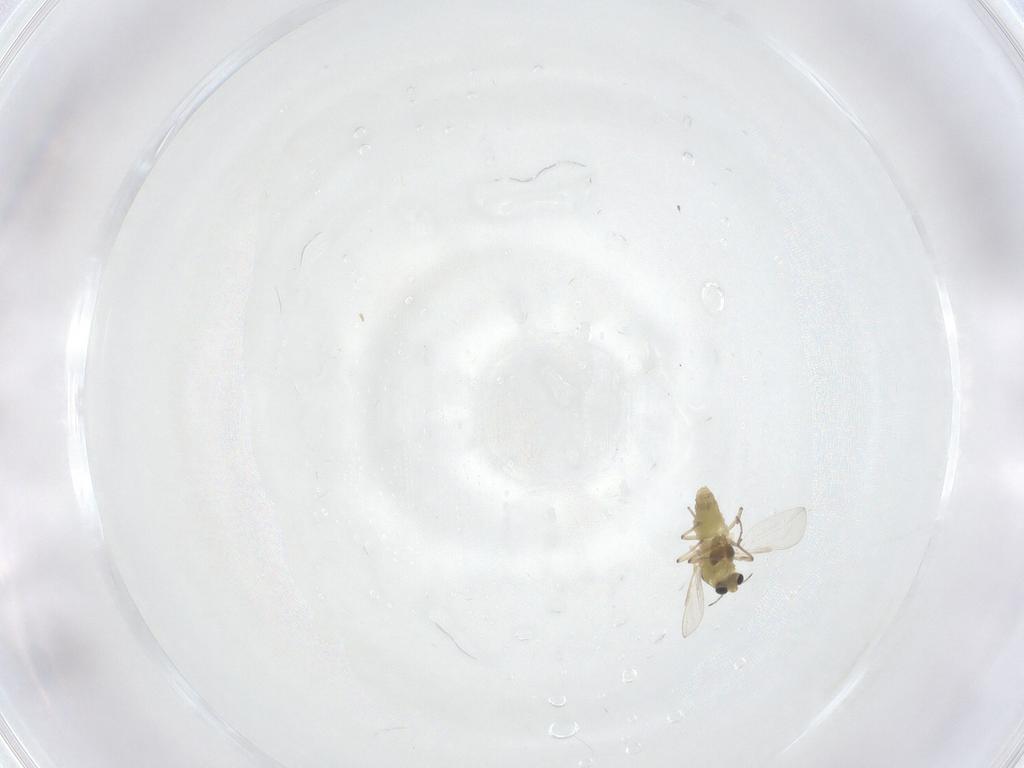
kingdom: Animalia
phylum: Arthropoda
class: Insecta
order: Diptera
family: Chironomidae
